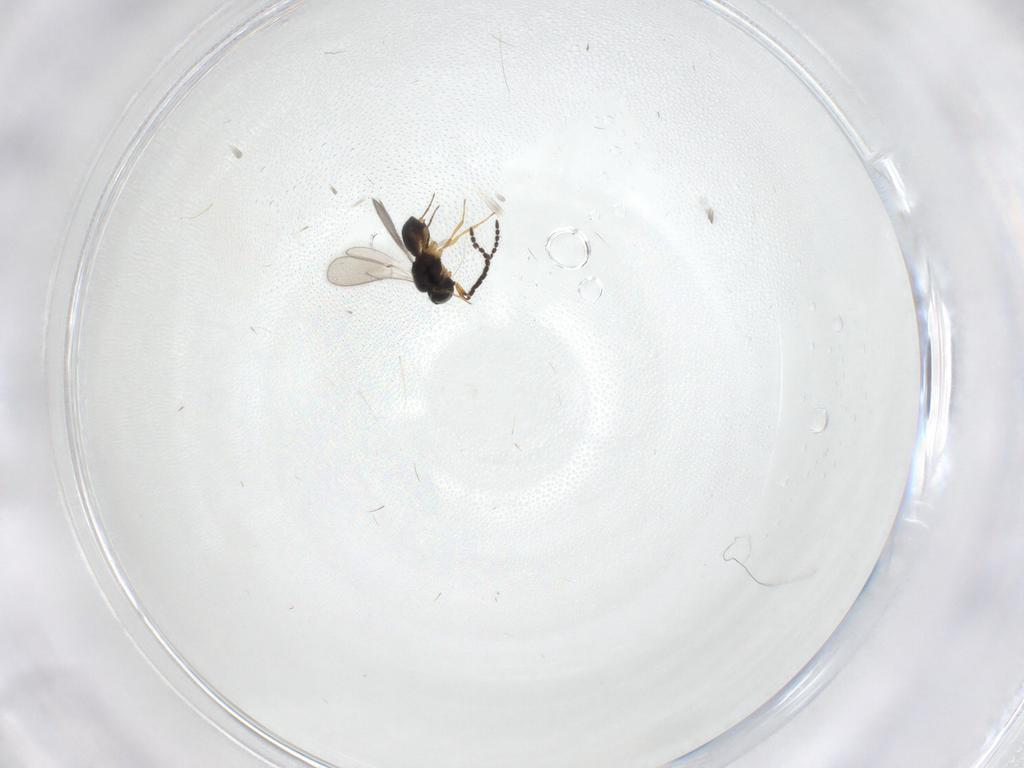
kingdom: Animalia
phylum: Arthropoda
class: Insecta
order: Hymenoptera
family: Scelionidae
